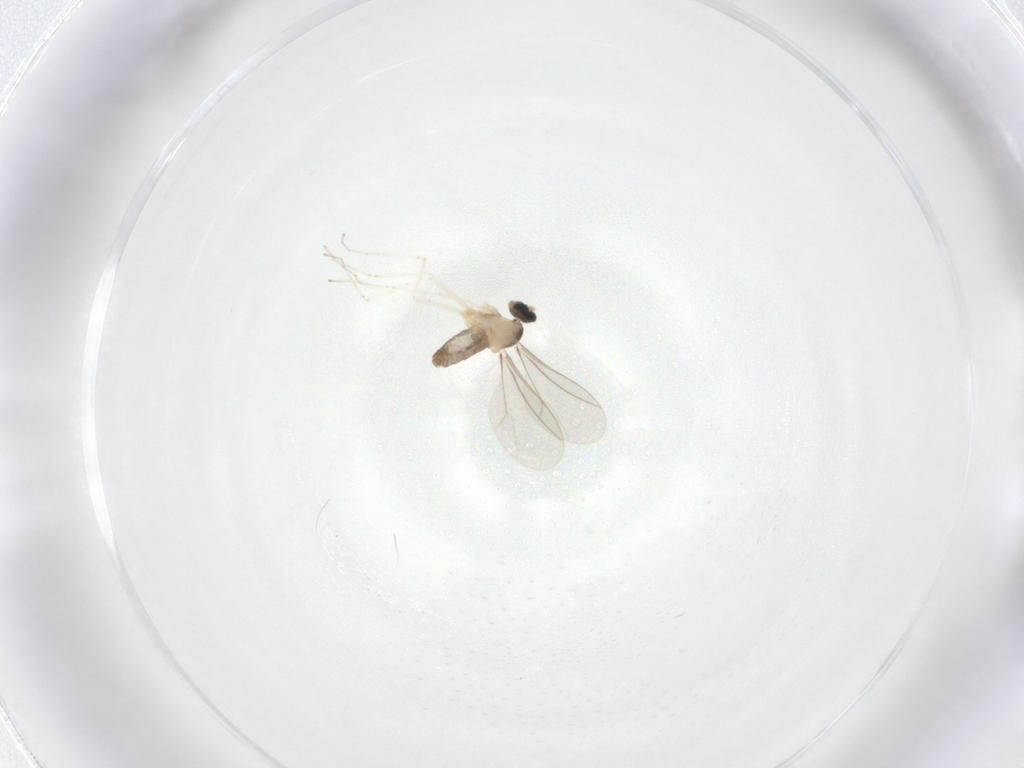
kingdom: Animalia
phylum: Arthropoda
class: Insecta
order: Diptera
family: Ceratopogonidae
